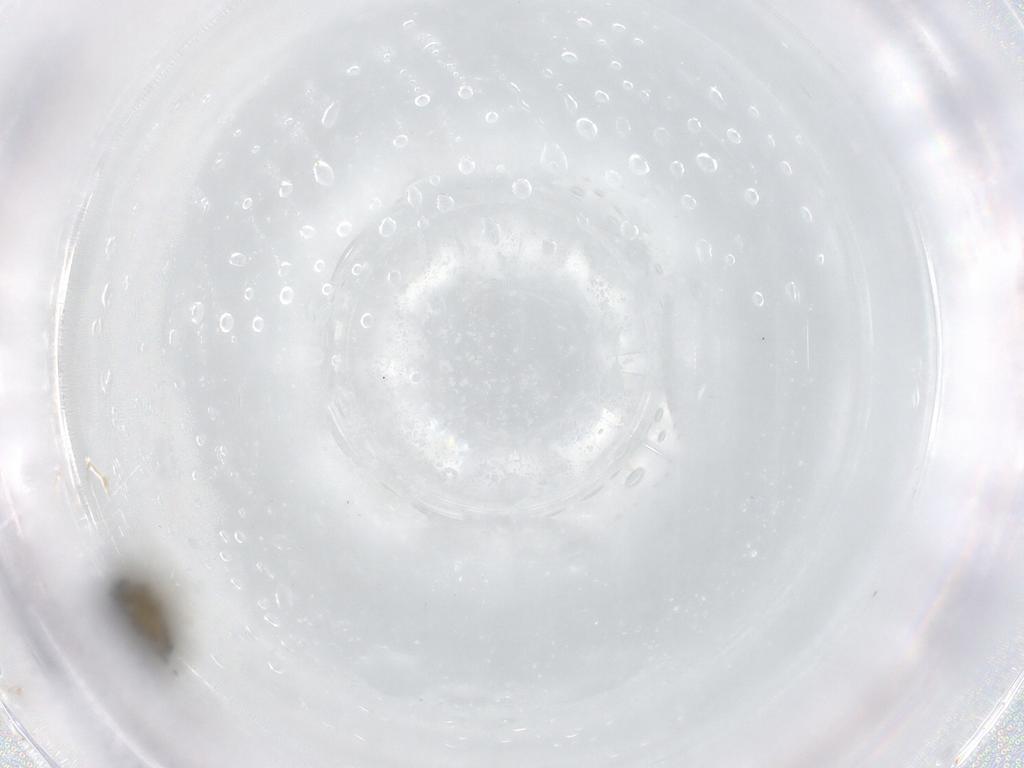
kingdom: Animalia
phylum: Arthropoda
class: Insecta
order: Diptera
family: Chironomidae
